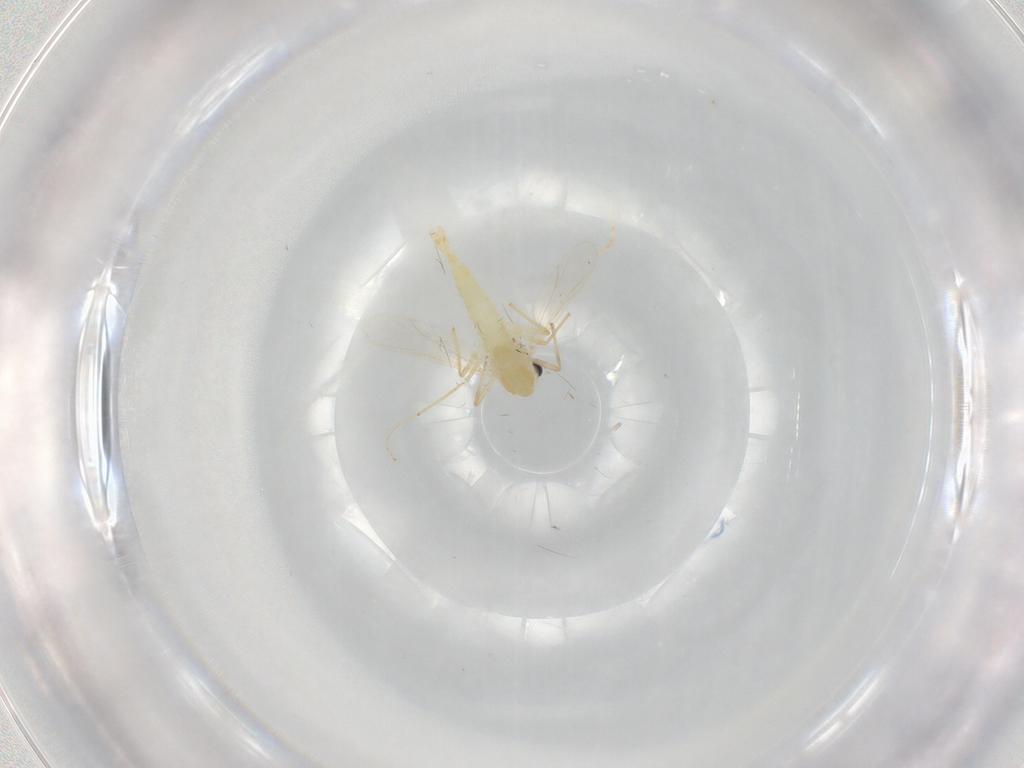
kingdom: Animalia
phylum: Arthropoda
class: Insecta
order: Diptera
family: Chironomidae
